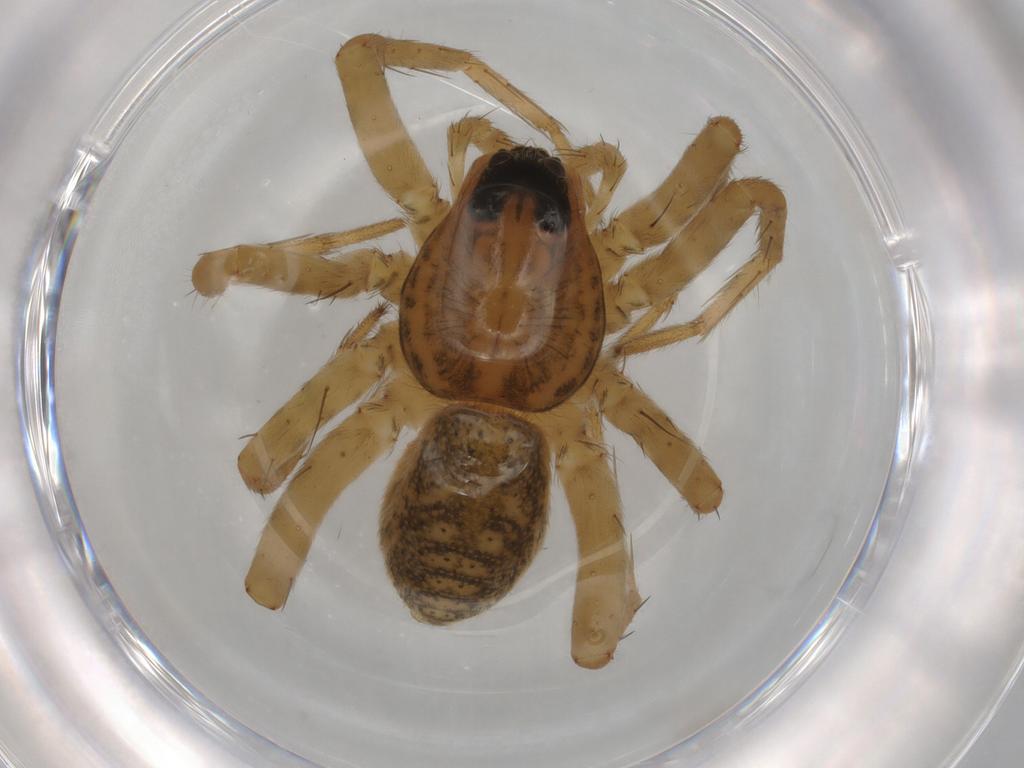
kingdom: Animalia
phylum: Arthropoda
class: Arachnida
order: Araneae
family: Lycosidae
